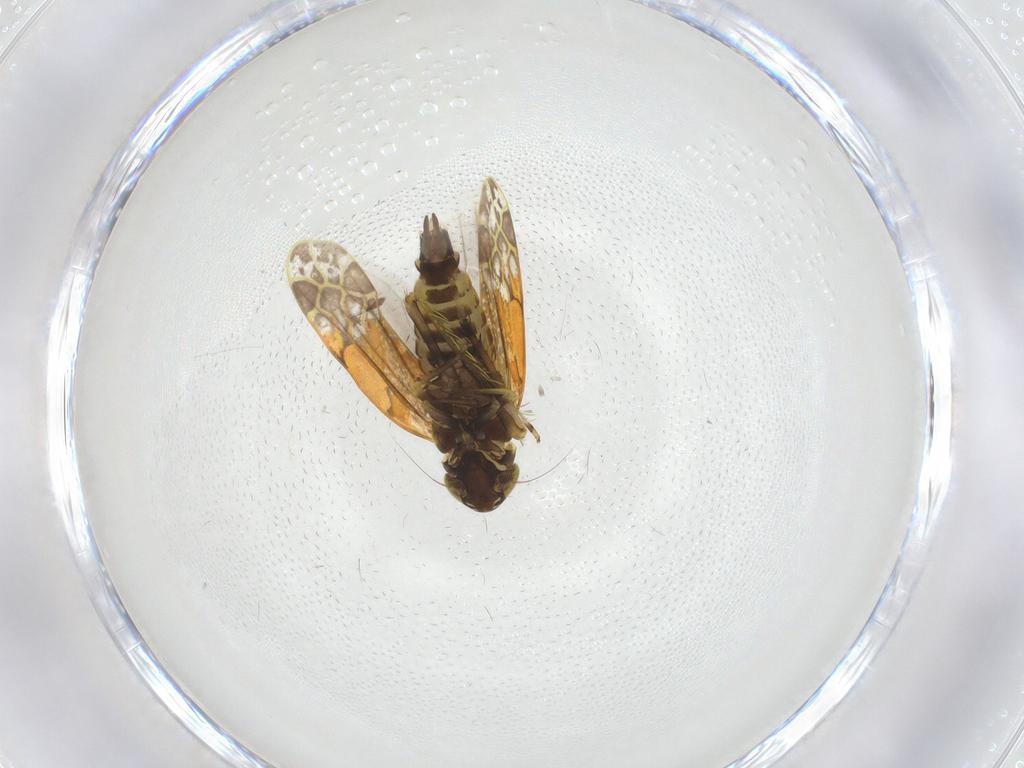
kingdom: Animalia
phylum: Arthropoda
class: Insecta
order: Hemiptera
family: Cicadellidae
